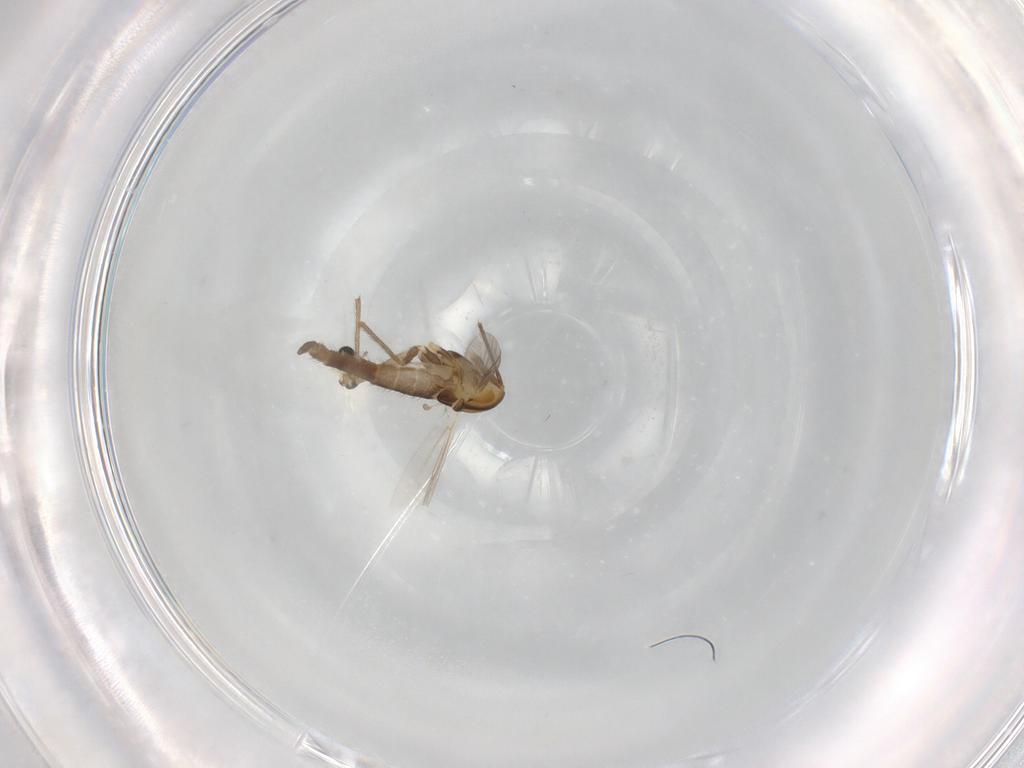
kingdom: Animalia
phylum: Arthropoda
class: Insecta
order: Diptera
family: Chironomidae
